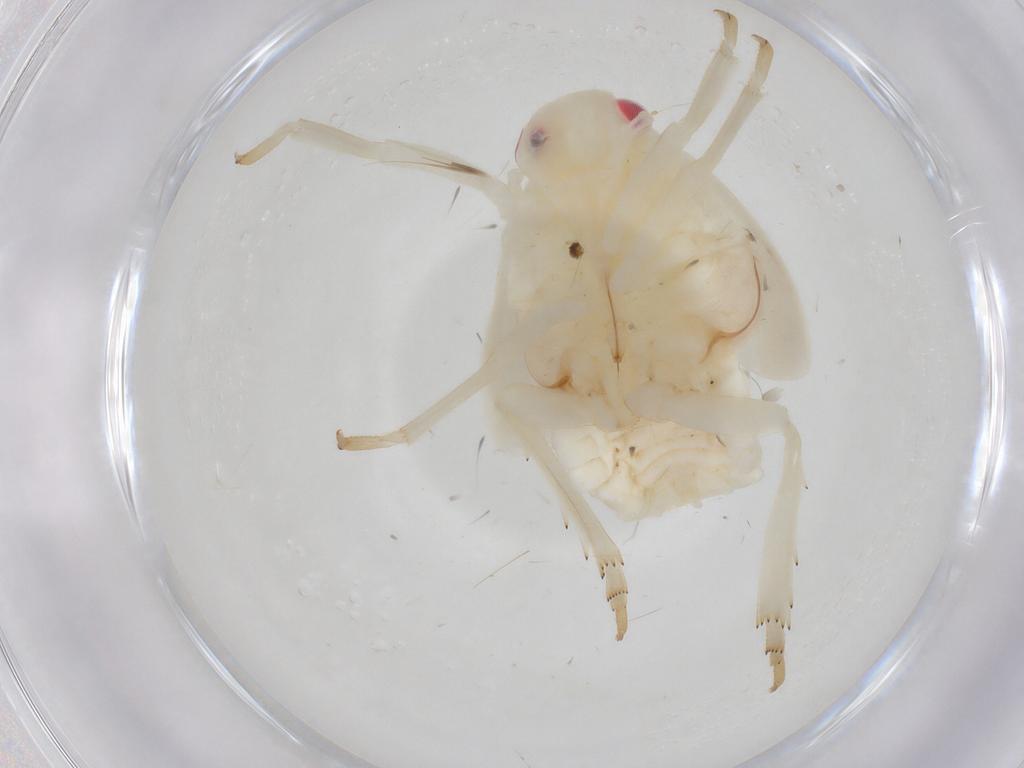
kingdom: Animalia
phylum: Arthropoda
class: Insecta
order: Hemiptera
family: Flatidae
